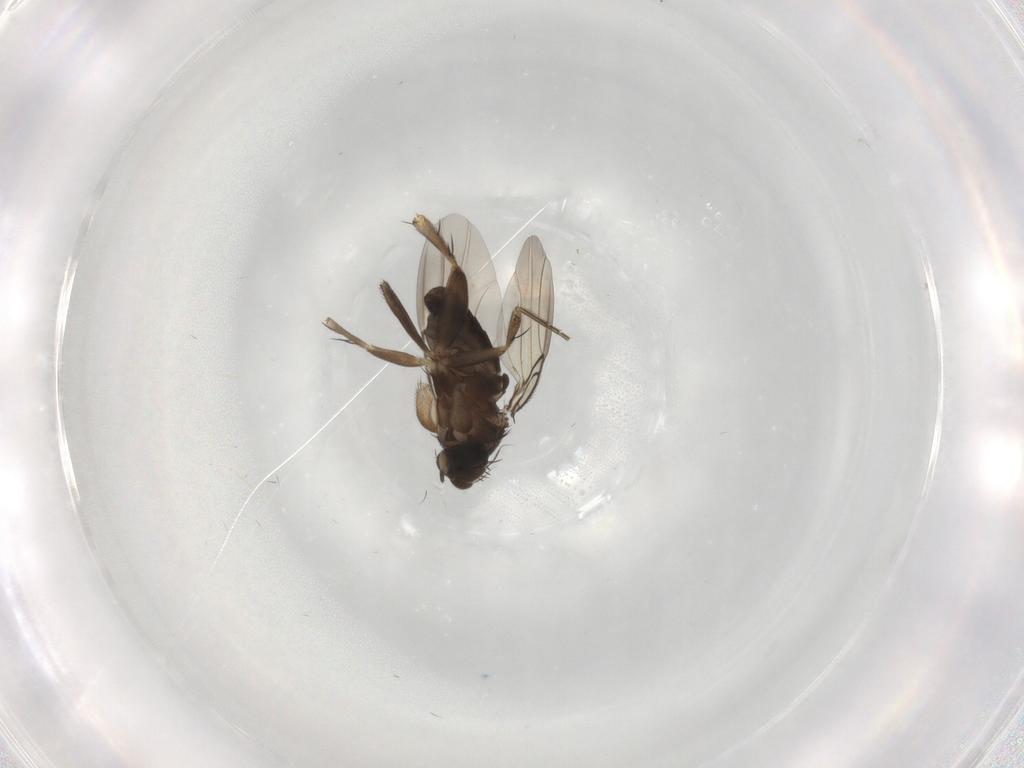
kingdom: Animalia
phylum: Arthropoda
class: Insecta
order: Diptera
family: Phoridae
